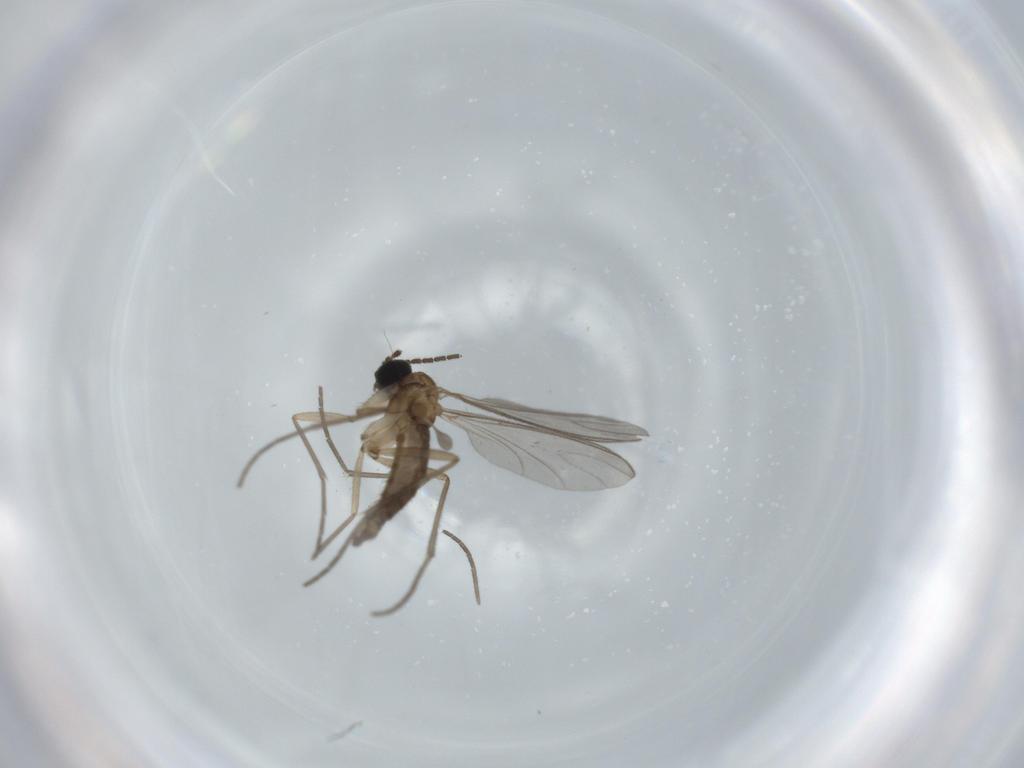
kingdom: Animalia
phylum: Arthropoda
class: Insecta
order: Diptera
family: Sciaridae
